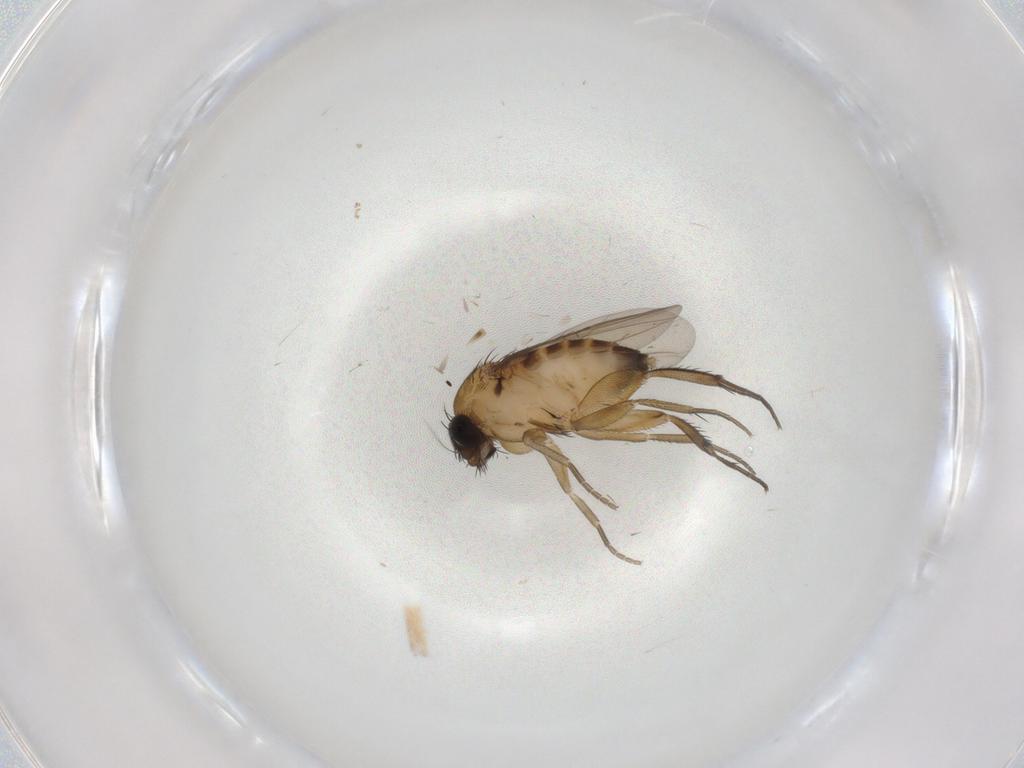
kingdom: Animalia
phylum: Arthropoda
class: Insecta
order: Diptera
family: Phoridae
